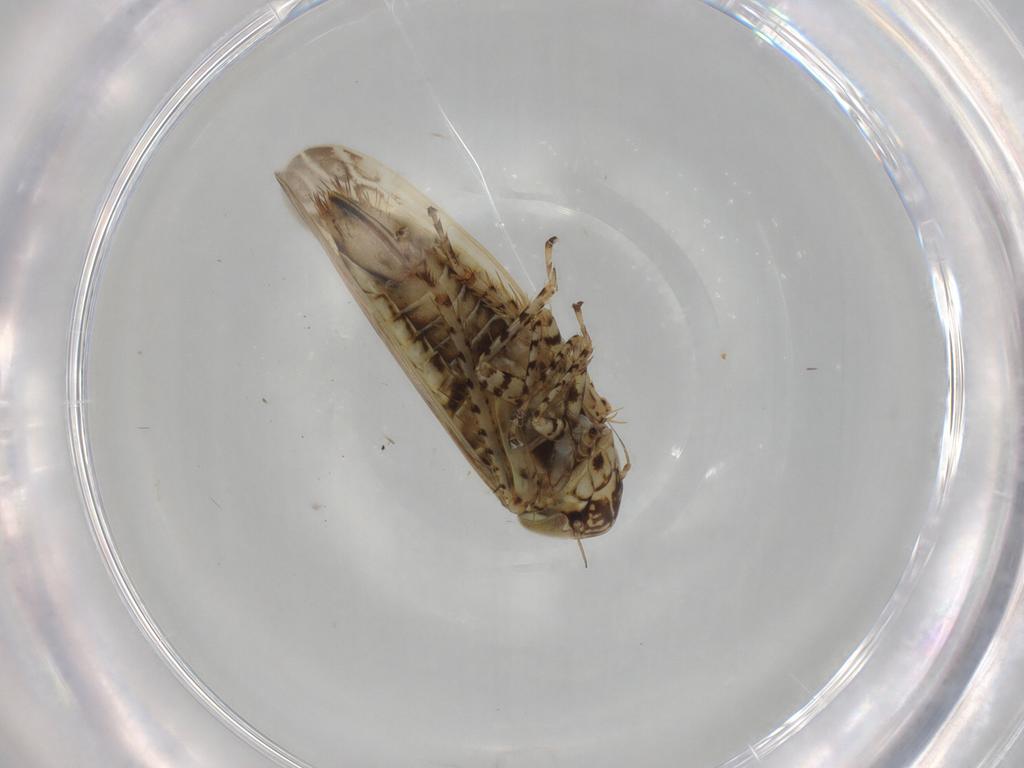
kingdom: Animalia
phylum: Arthropoda
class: Insecta
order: Hemiptera
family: Cicadellidae
